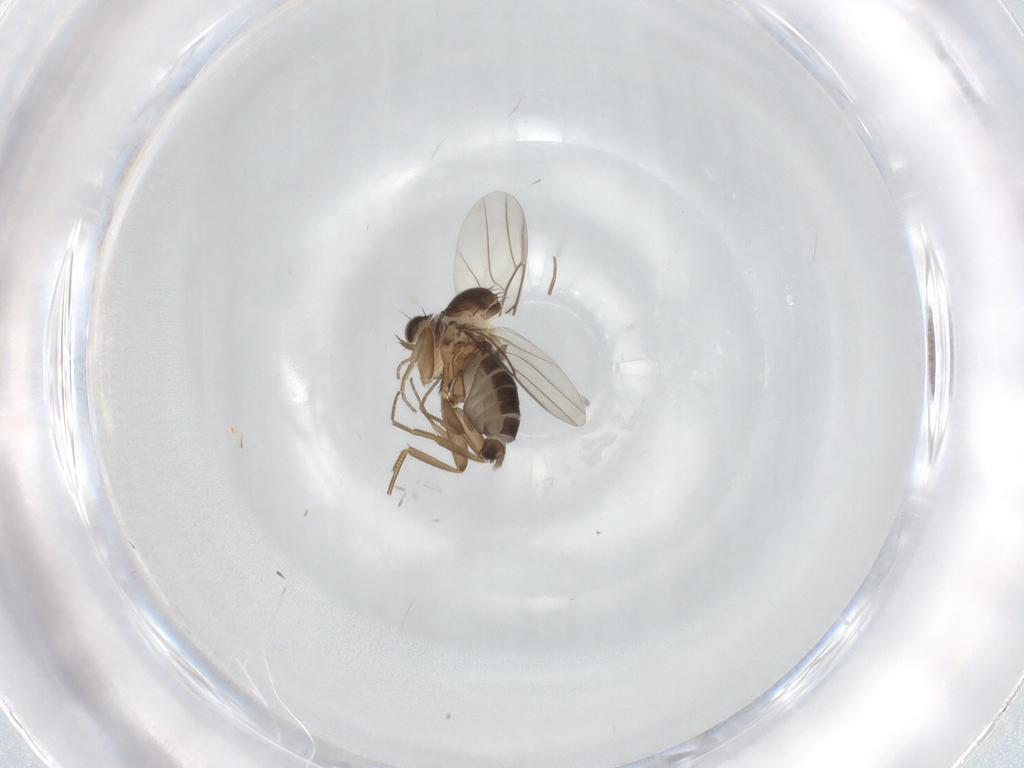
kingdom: Animalia
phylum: Arthropoda
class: Insecta
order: Diptera
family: Phoridae
